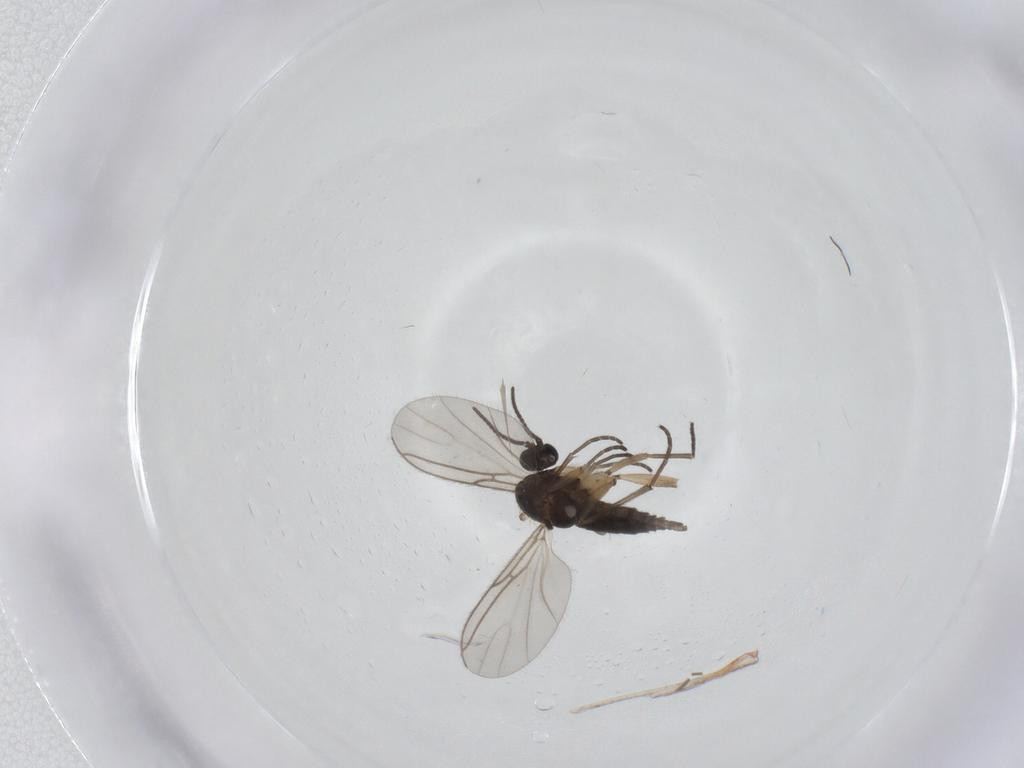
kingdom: Animalia
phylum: Arthropoda
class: Insecta
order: Diptera
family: Sciaridae
